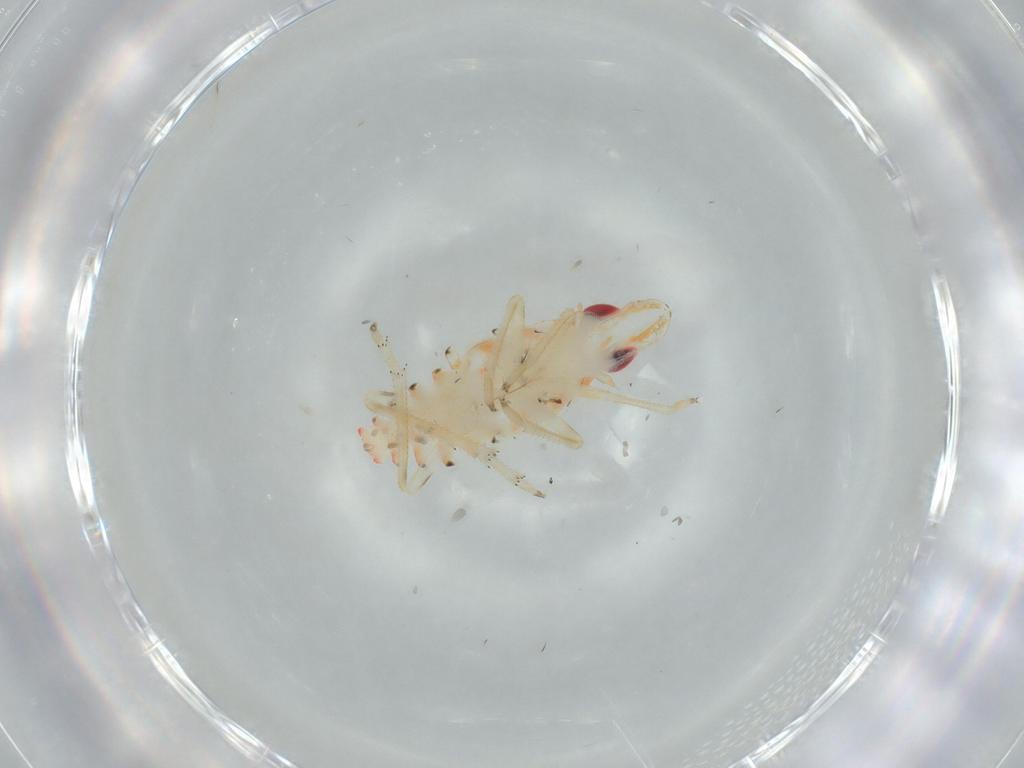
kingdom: Animalia
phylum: Arthropoda
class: Insecta
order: Hemiptera
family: Tropiduchidae
